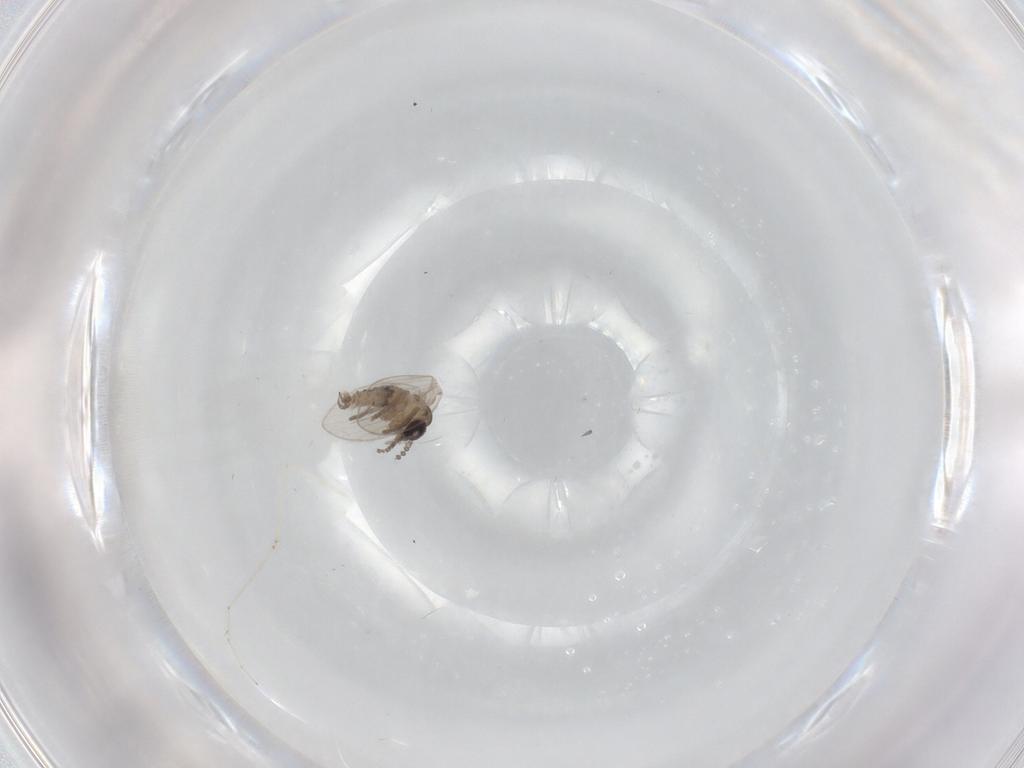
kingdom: Animalia
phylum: Arthropoda
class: Insecta
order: Diptera
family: Psychodidae
